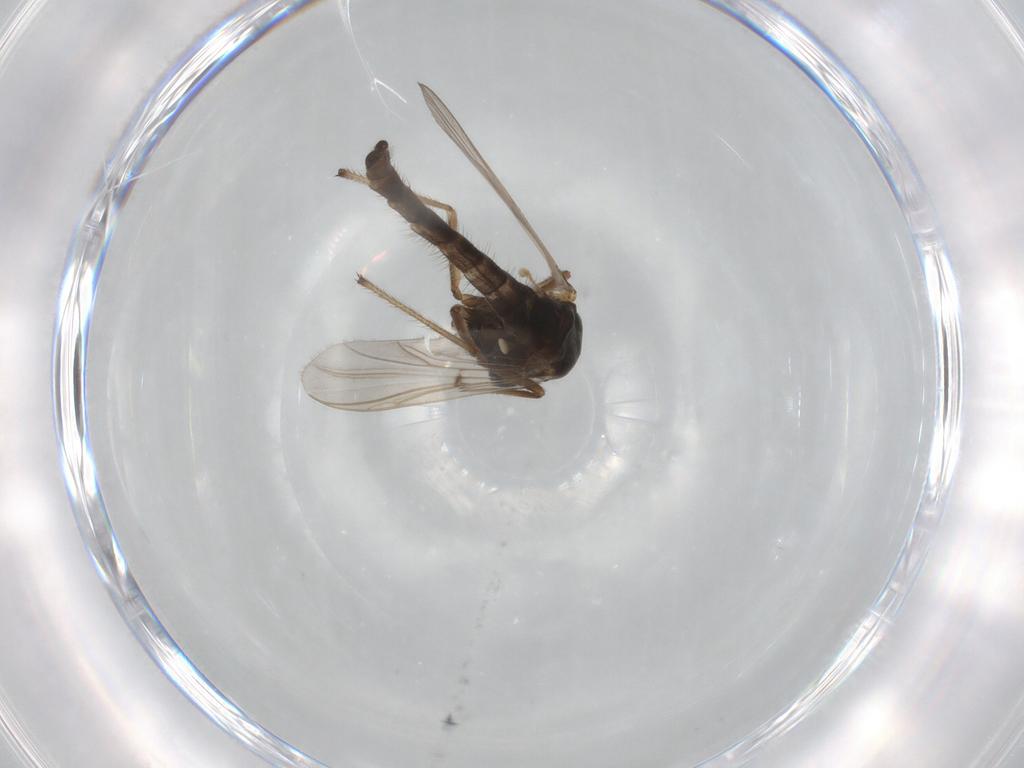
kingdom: Animalia
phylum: Arthropoda
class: Insecta
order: Diptera
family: Chironomidae
